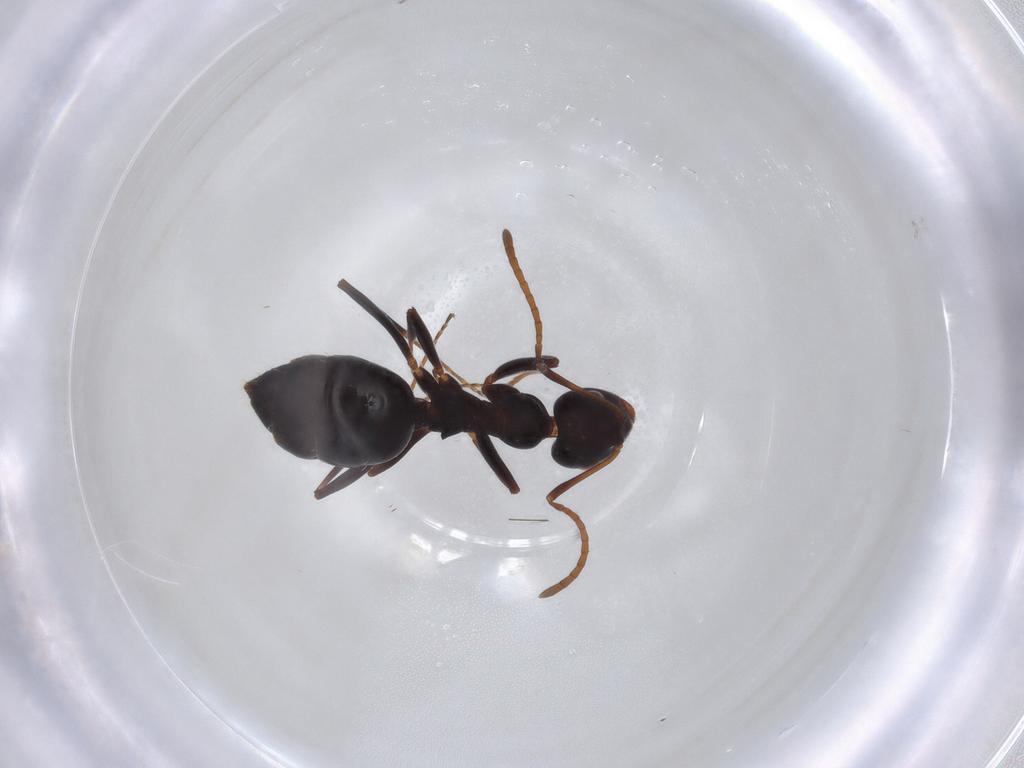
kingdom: Animalia
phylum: Arthropoda
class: Insecta
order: Hymenoptera
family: Formicidae
